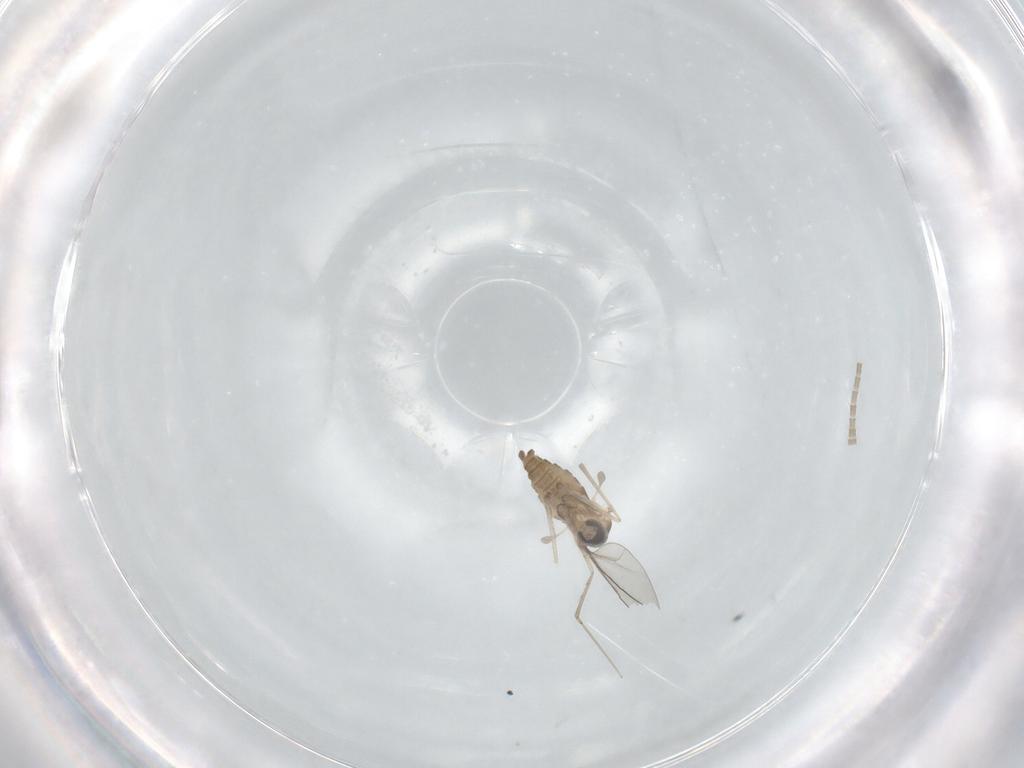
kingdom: Animalia
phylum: Arthropoda
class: Insecta
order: Diptera
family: Cecidomyiidae
